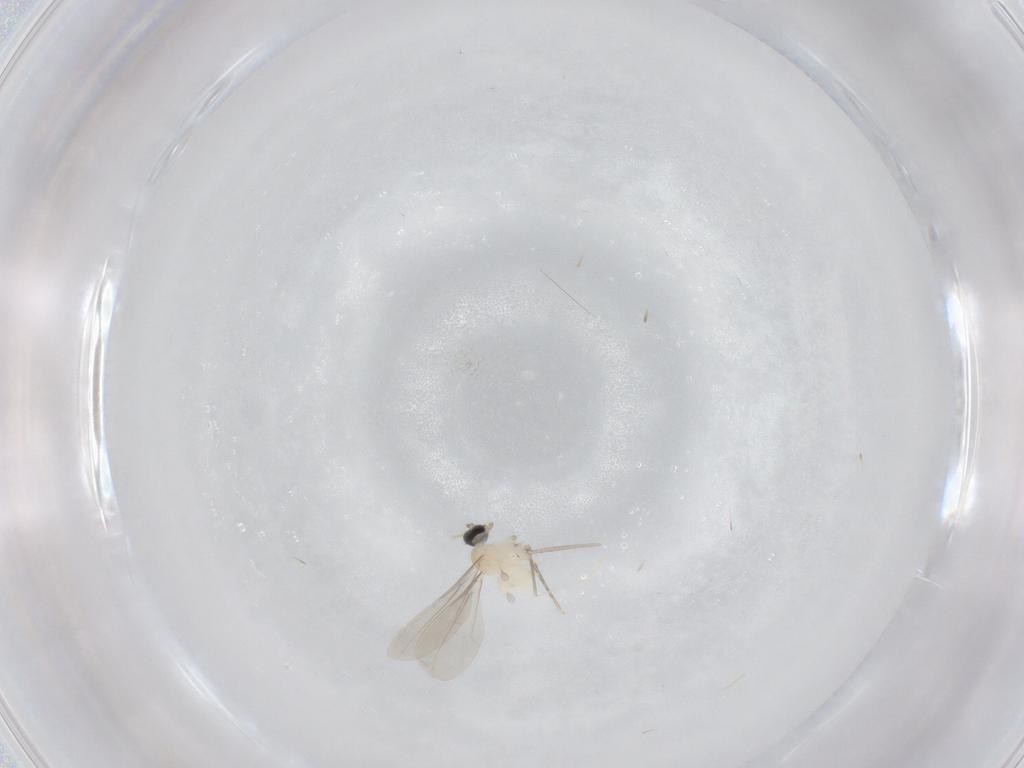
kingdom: Animalia
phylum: Arthropoda
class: Insecta
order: Diptera
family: Cecidomyiidae
